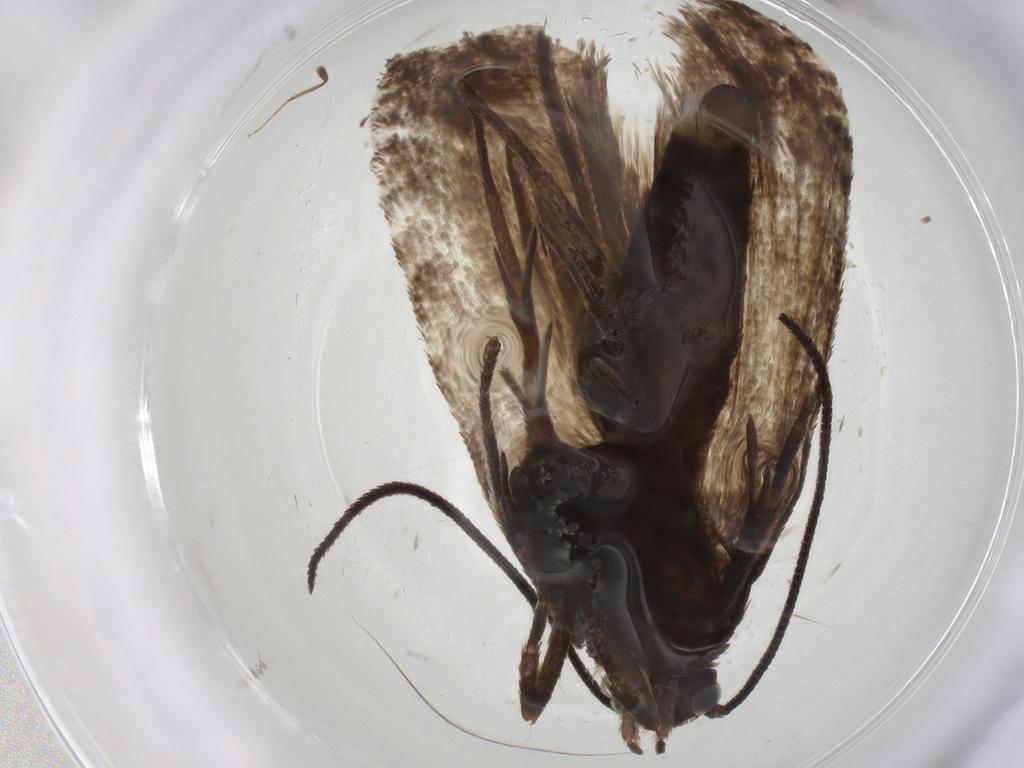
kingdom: Animalia
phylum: Arthropoda
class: Insecta
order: Lepidoptera
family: Tortricidae
